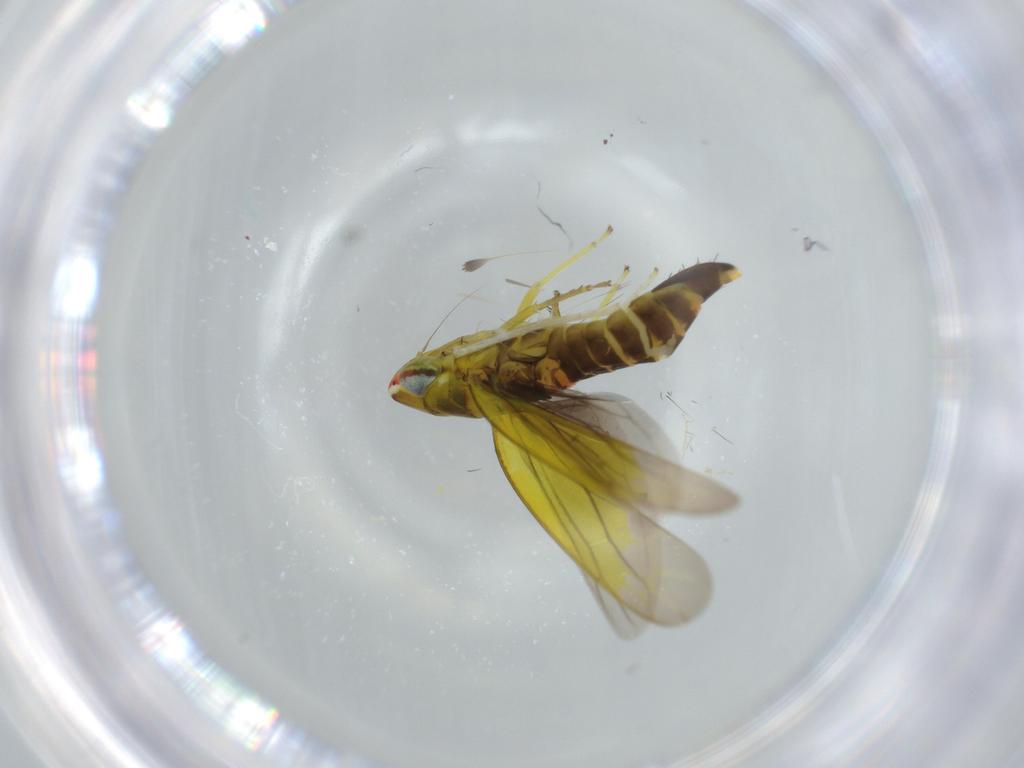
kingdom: Animalia
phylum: Arthropoda
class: Insecta
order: Hemiptera
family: Cicadellidae
